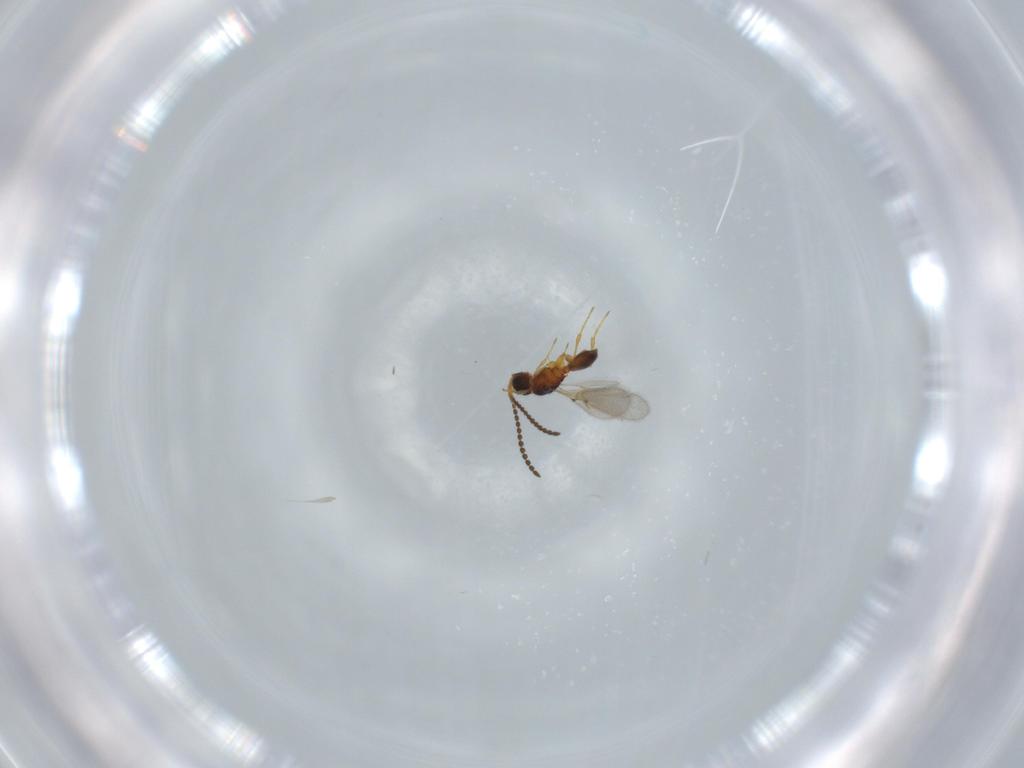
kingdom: Animalia
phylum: Arthropoda
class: Insecta
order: Hymenoptera
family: Diapriidae
